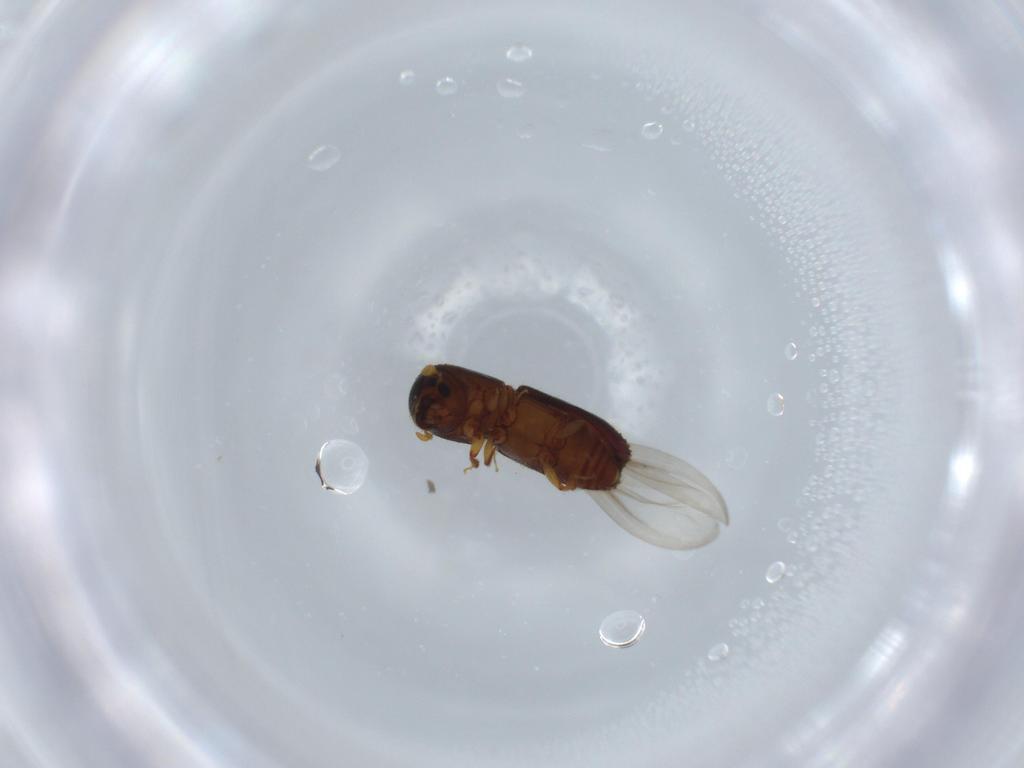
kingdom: Animalia
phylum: Arthropoda
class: Insecta
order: Coleoptera
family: Curculionidae
